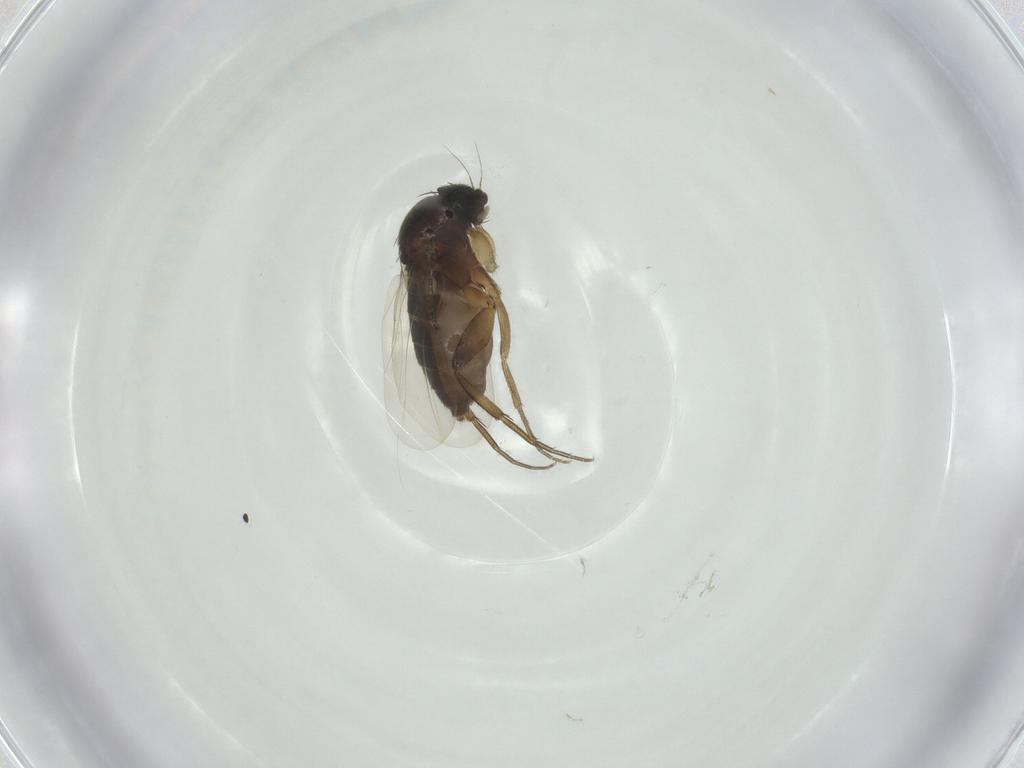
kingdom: Animalia
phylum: Arthropoda
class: Insecta
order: Diptera
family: Phoridae
